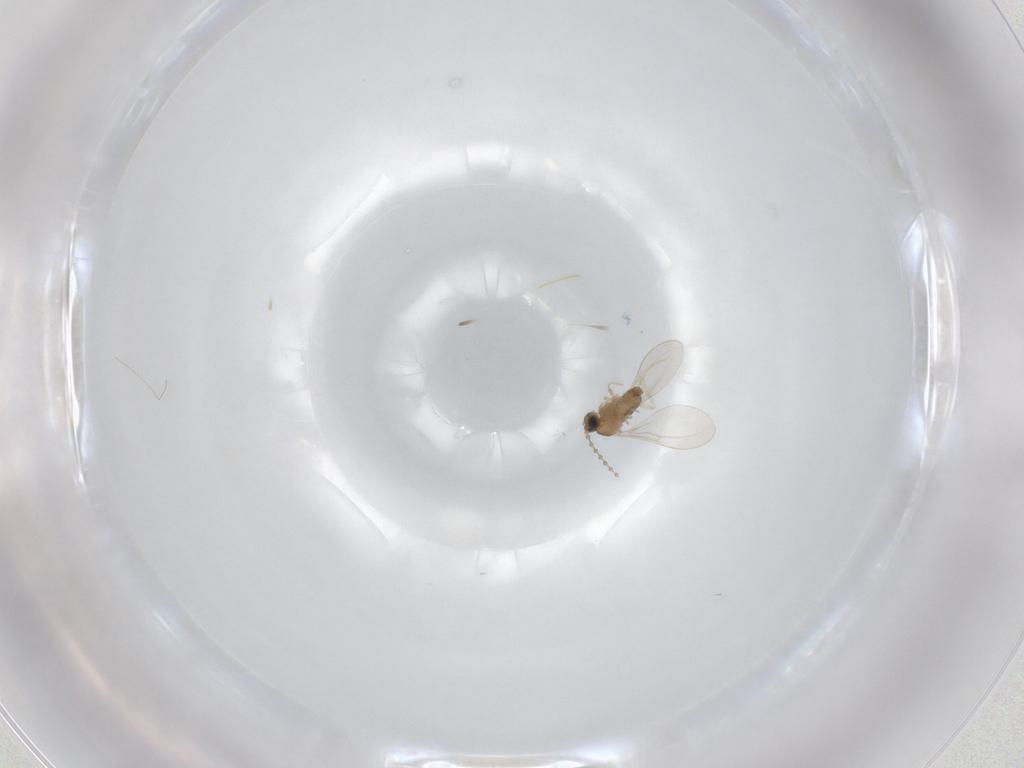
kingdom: Animalia
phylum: Arthropoda
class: Insecta
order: Diptera
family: Cecidomyiidae
